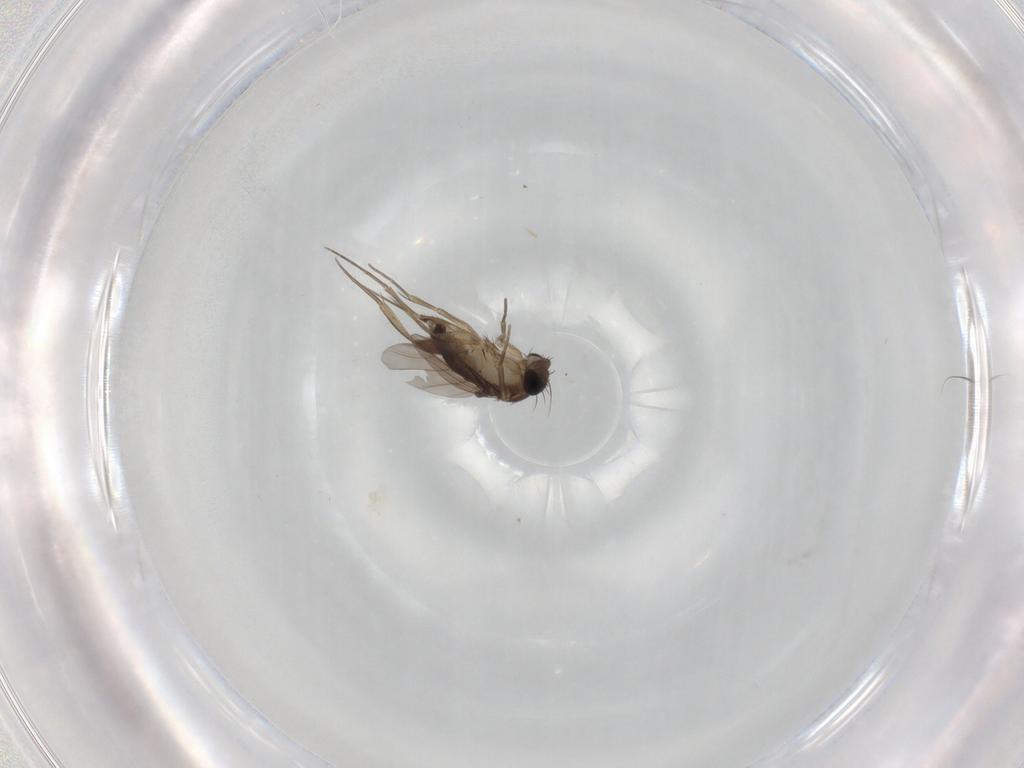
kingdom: Animalia
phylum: Arthropoda
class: Insecta
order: Diptera
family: Phoridae
